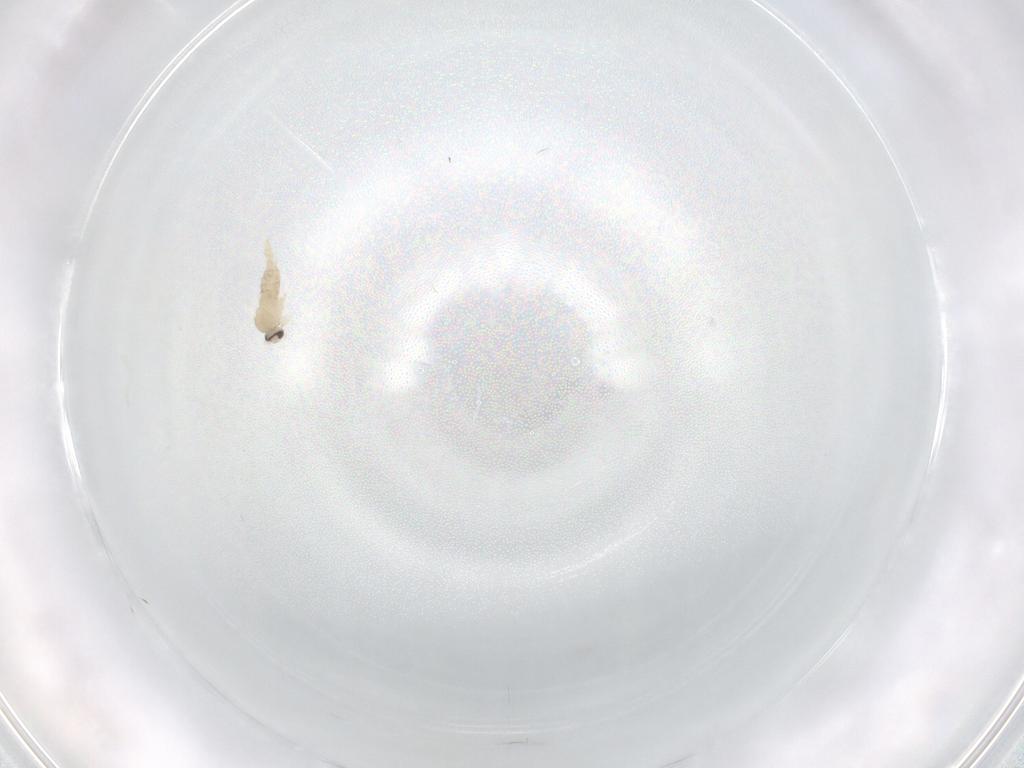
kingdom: Animalia
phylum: Arthropoda
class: Insecta
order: Diptera
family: Cecidomyiidae
